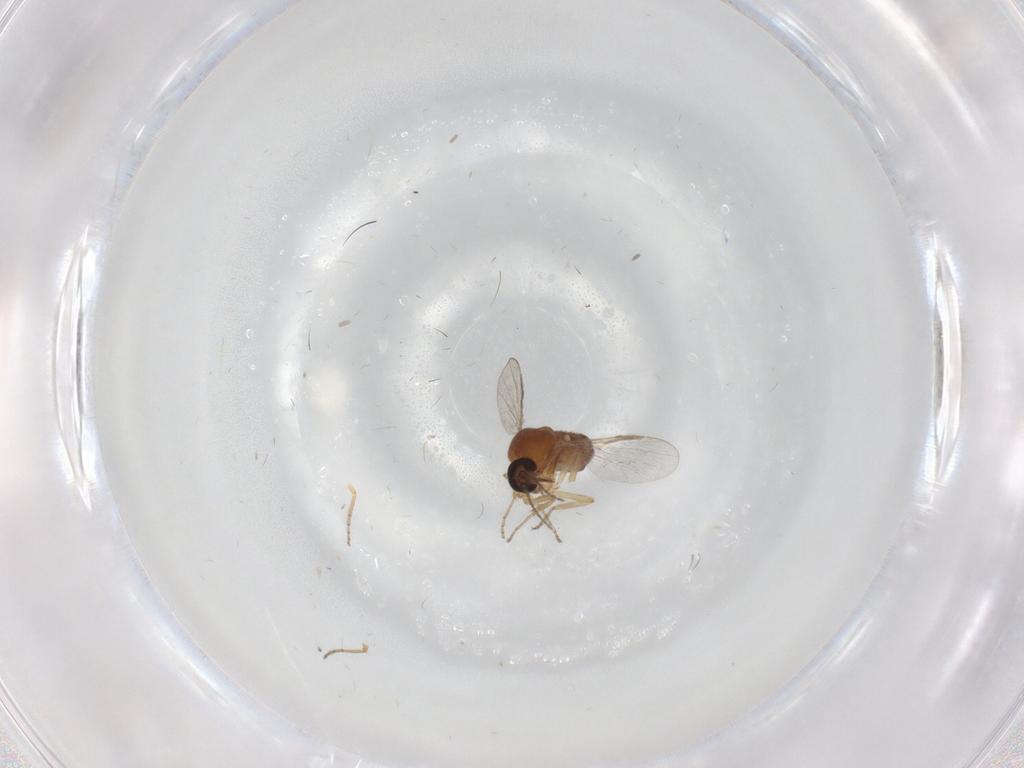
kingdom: Animalia
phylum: Arthropoda
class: Insecta
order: Diptera
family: Ceratopogonidae
